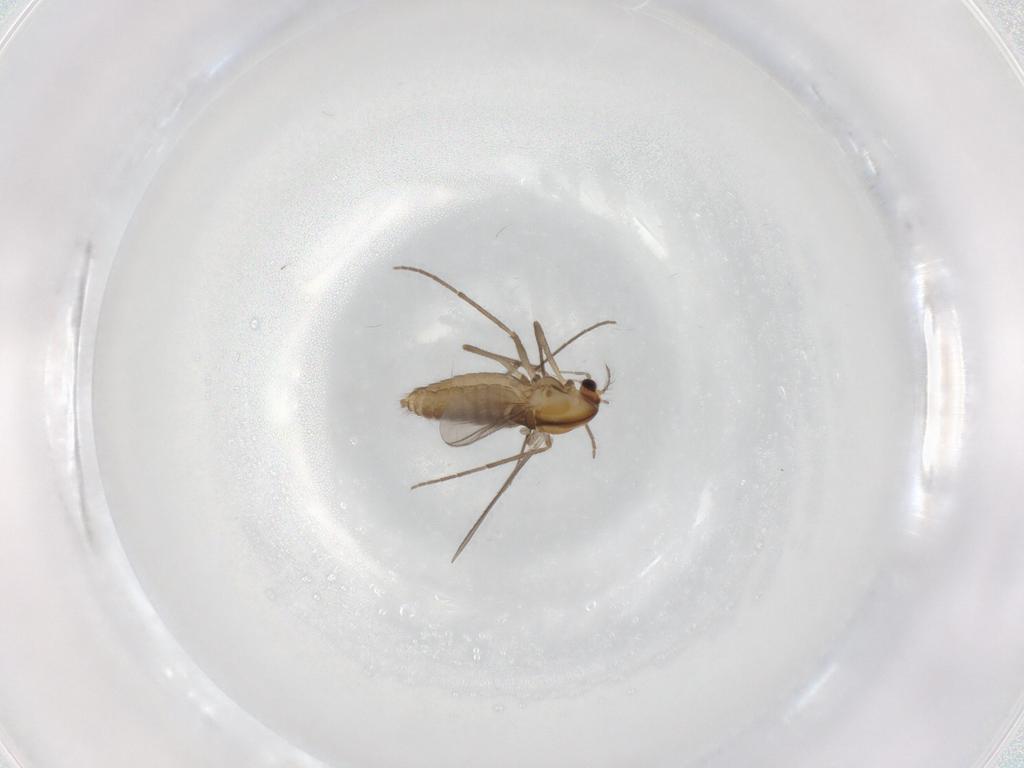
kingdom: Animalia
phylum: Arthropoda
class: Insecta
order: Diptera
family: Chironomidae
